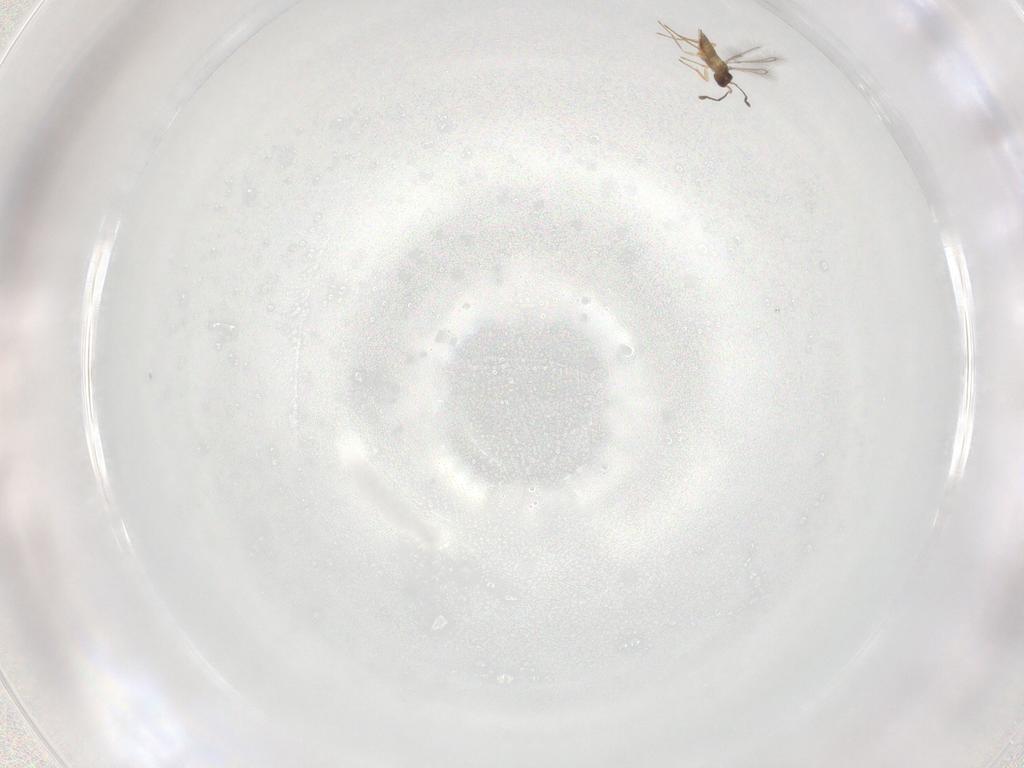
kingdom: Animalia
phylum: Arthropoda
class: Insecta
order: Hymenoptera
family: Mymaridae
